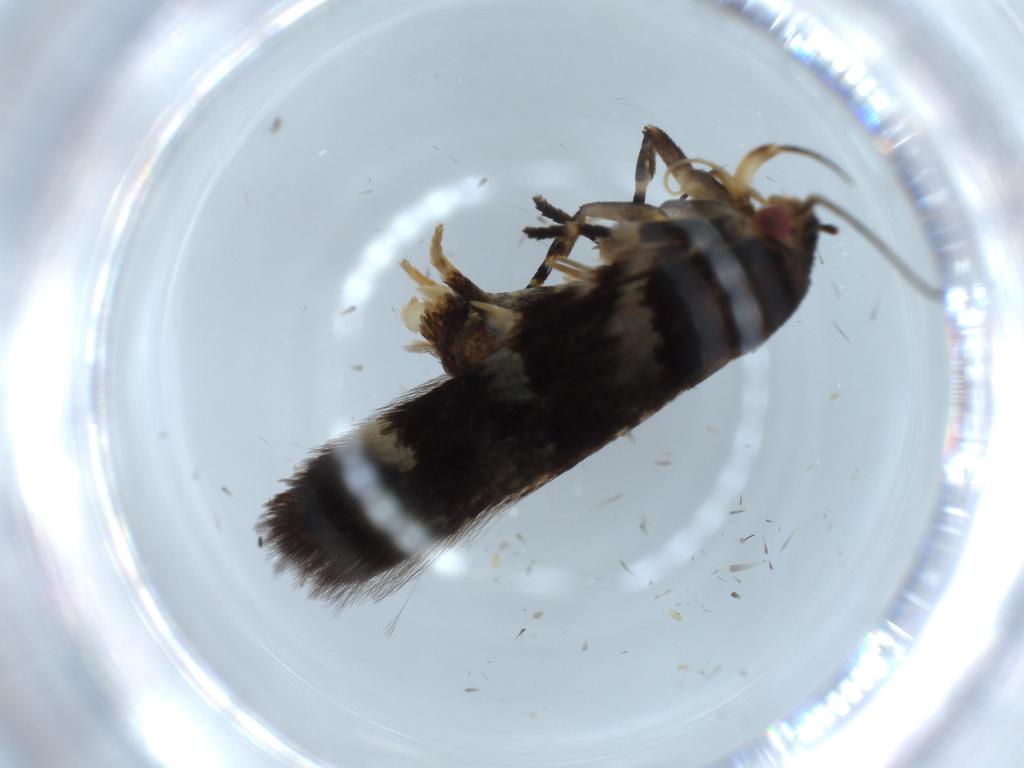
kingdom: Animalia
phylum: Arthropoda
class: Insecta
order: Lepidoptera
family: Cosmopterigidae
